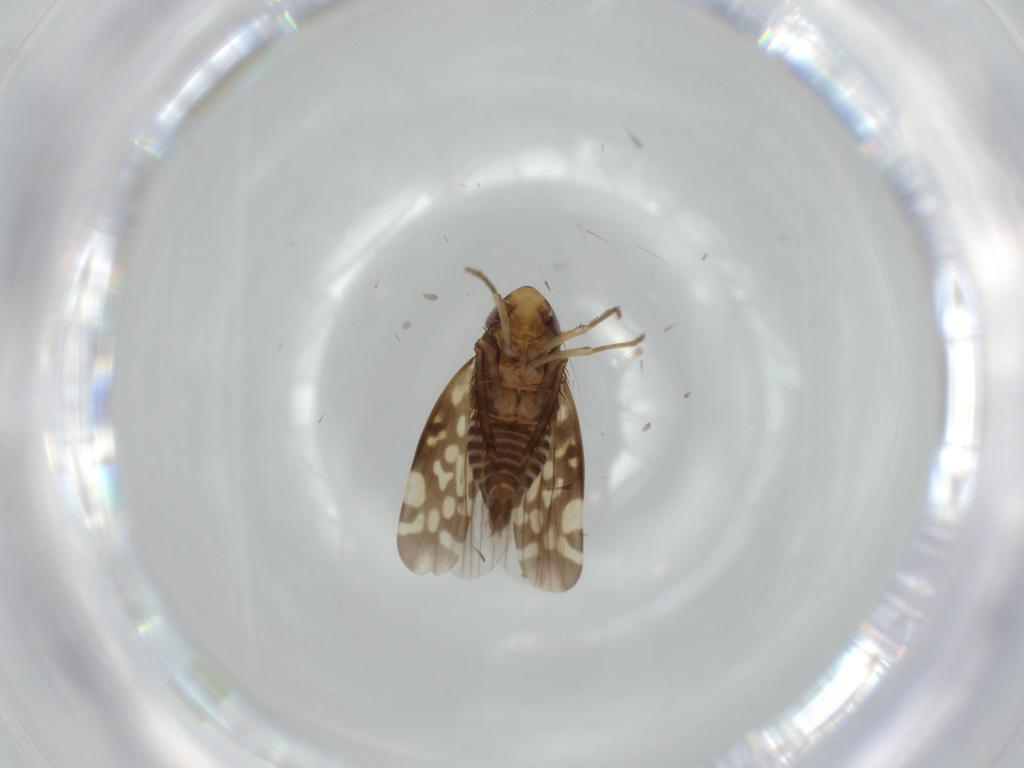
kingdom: Animalia
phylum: Arthropoda
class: Insecta
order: Hemiptera
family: Cicadellidae
